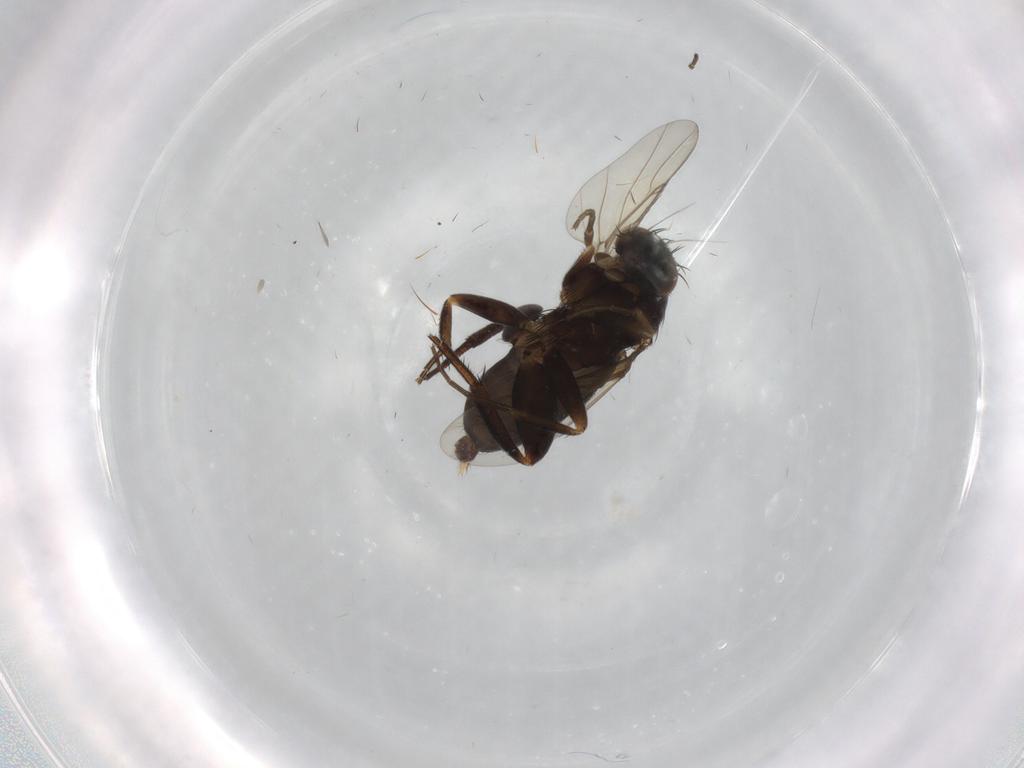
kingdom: Animalia
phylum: Arthropoda
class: Insecta
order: Diptera
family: Phoridae
